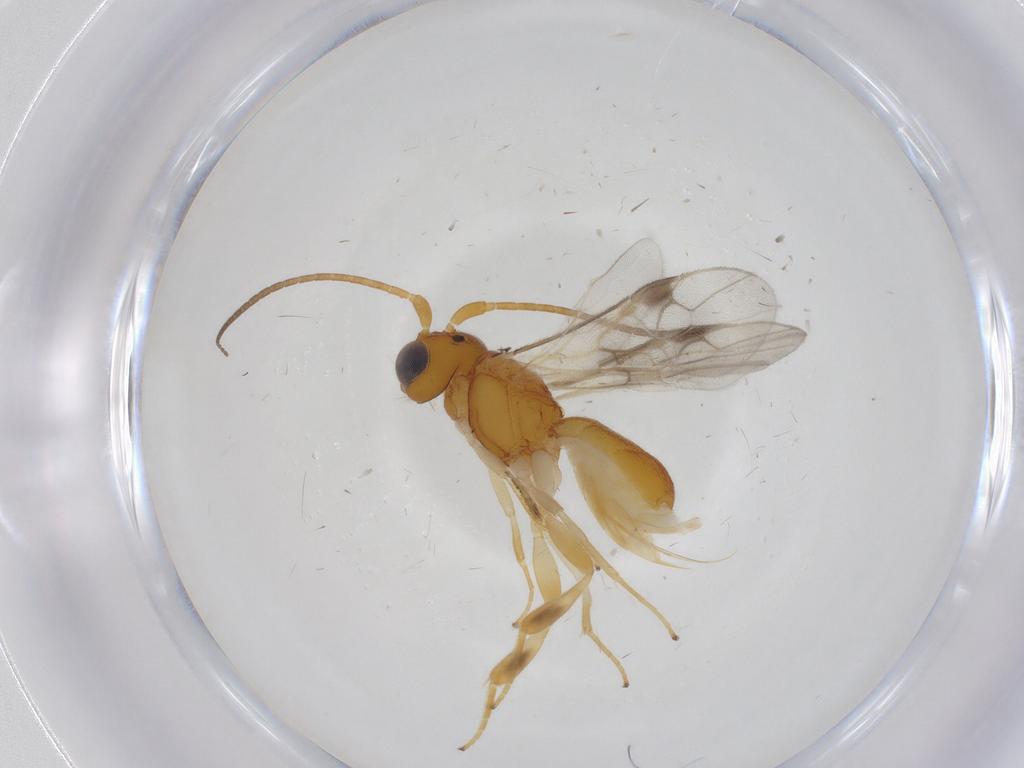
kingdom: Animalia
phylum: Arthropoda
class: Insecta
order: Hymenoptera
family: Braconidae
